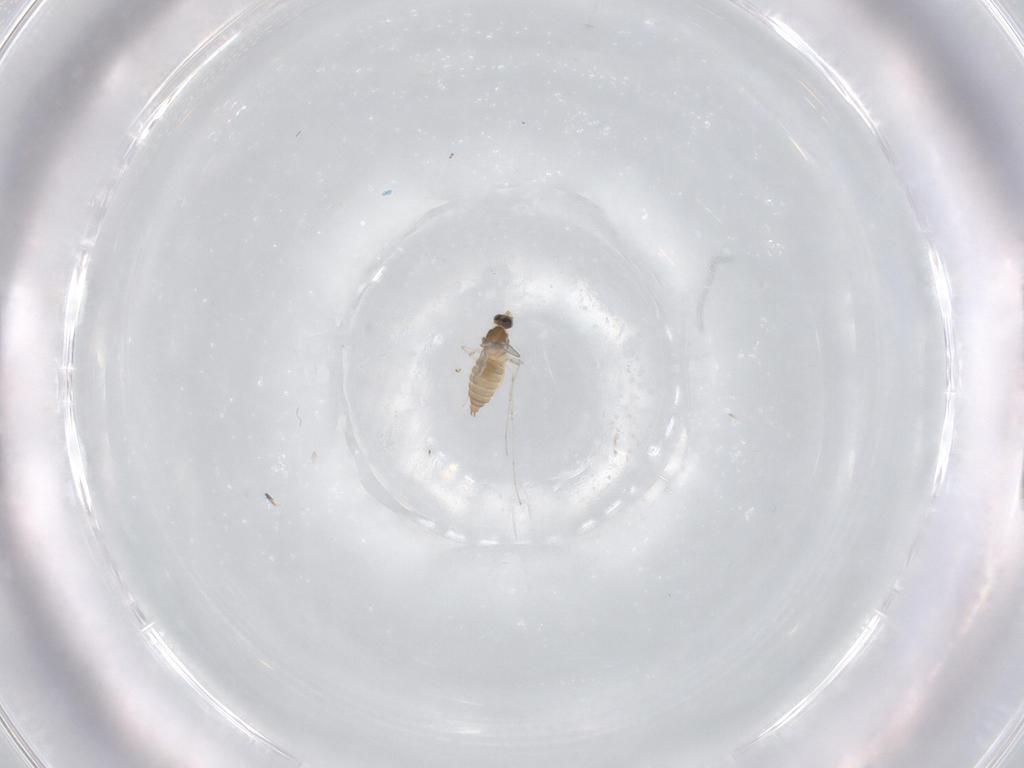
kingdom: Animalia
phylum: Arthropoda
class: Insecta
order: Diptera
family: Cecidomyiidae
